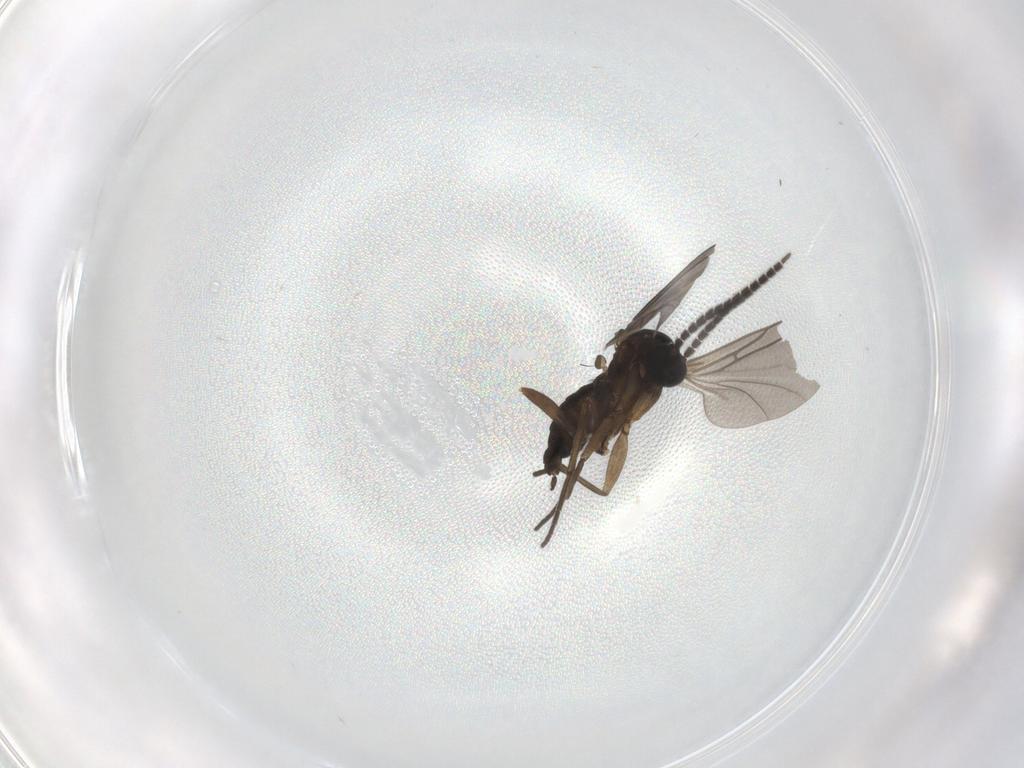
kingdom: Animalia
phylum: Arthropoda
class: Insecta
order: Diptera
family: Sciaridae
